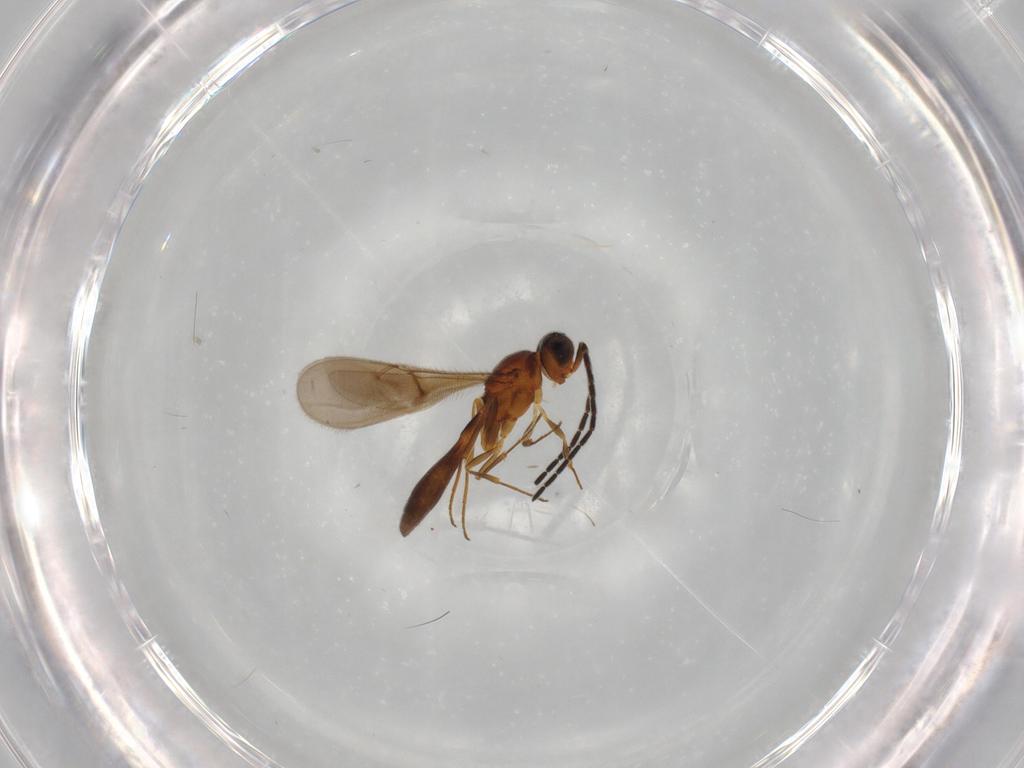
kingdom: Animalia
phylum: Arthropoda
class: Insecta
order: Hymenoptera
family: Scelionidae
